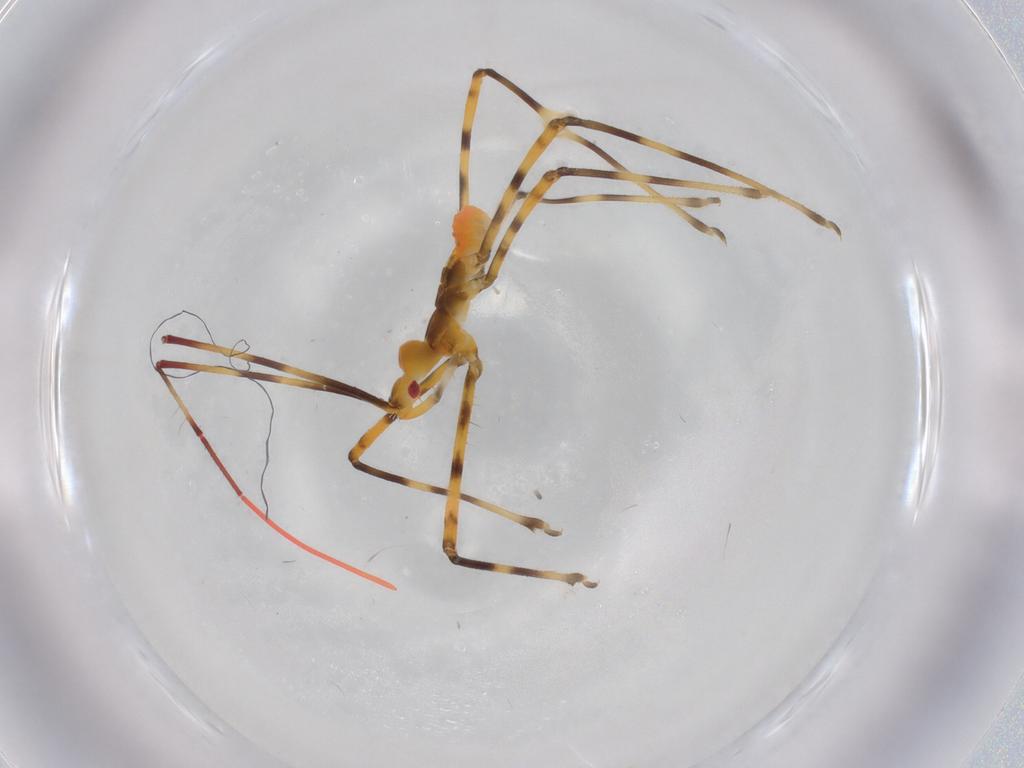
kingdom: Animalia
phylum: Arthropoda
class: Insecta
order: Hemiptera
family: Reduviidae
